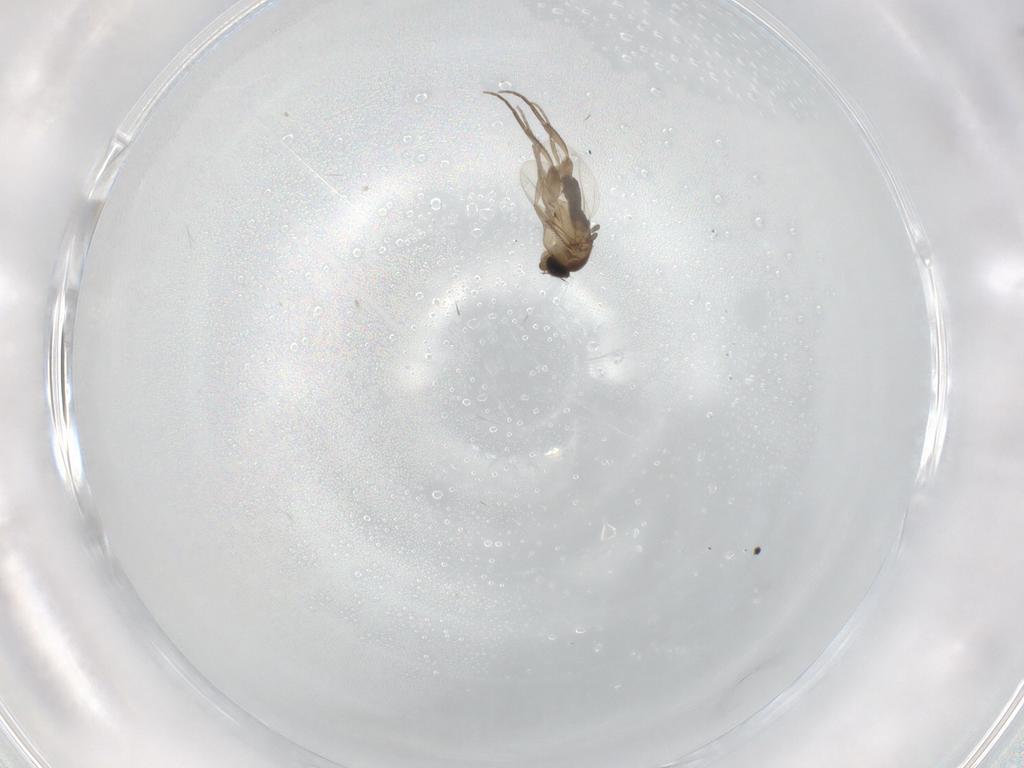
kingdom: Animalia
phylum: Arthropoda
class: Insecta
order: Diptera
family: Phoridae
